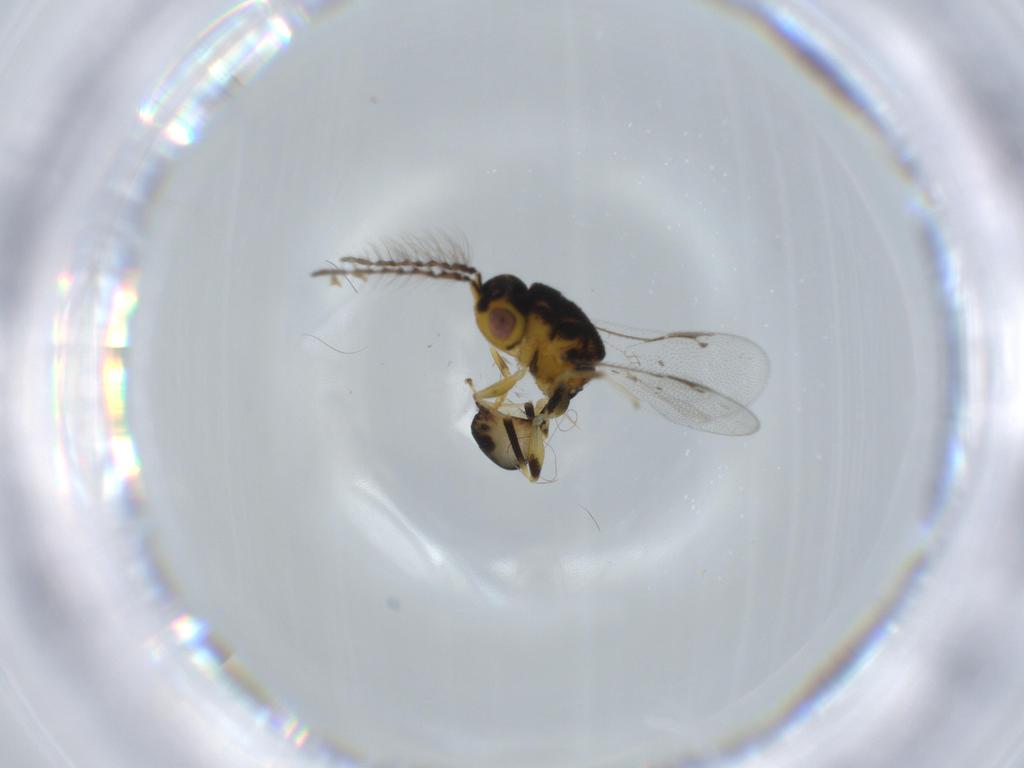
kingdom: Animalia
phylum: Arthropoda
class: Insecta
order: Hymenoptera
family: Eurytomidae
